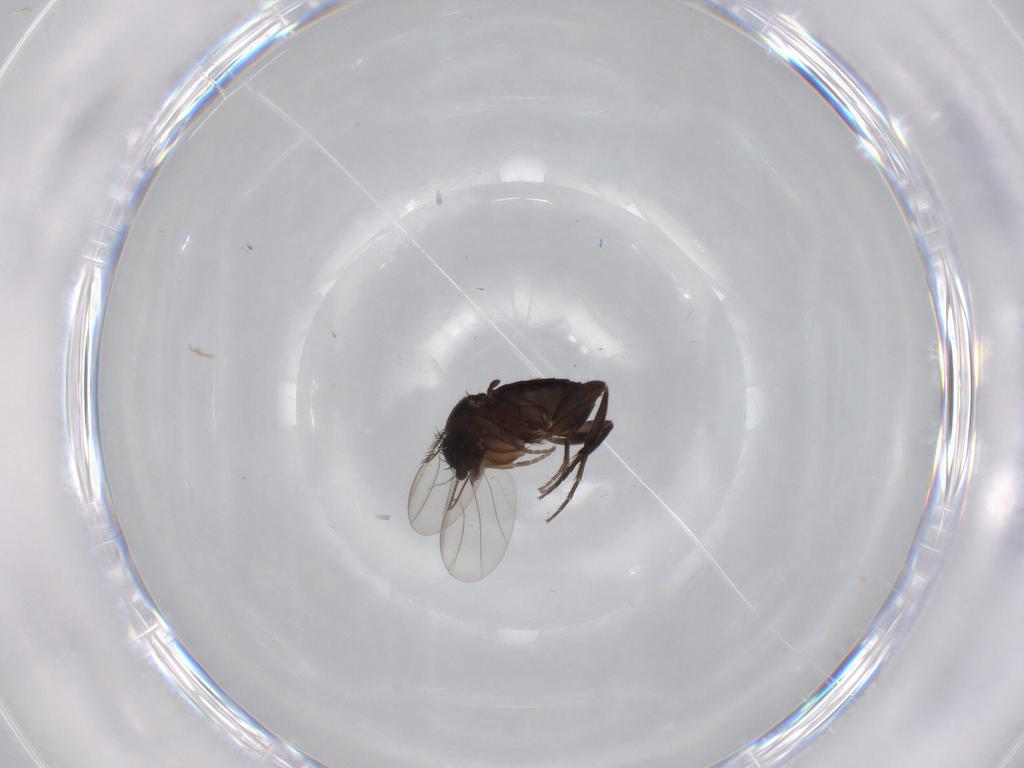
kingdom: Animalia
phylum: Arthropoda
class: Insecta
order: Diptera
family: Phoridae
